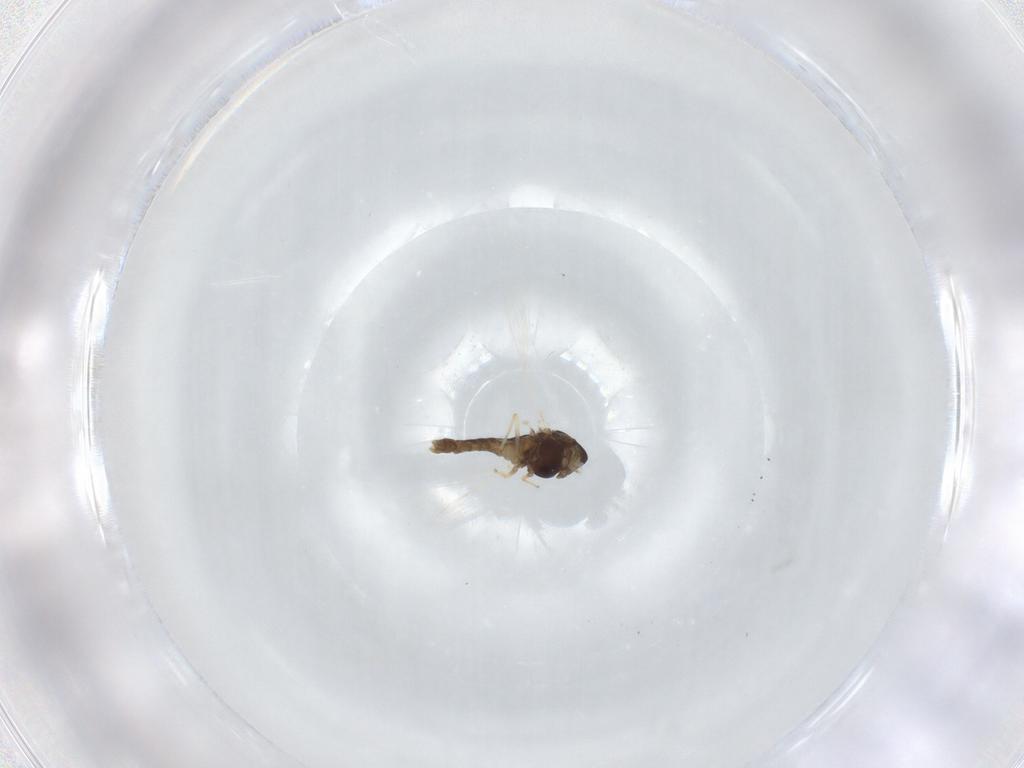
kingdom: Animalia
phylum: Arthropoda
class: Insecta
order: Diptera
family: Chironomidae
